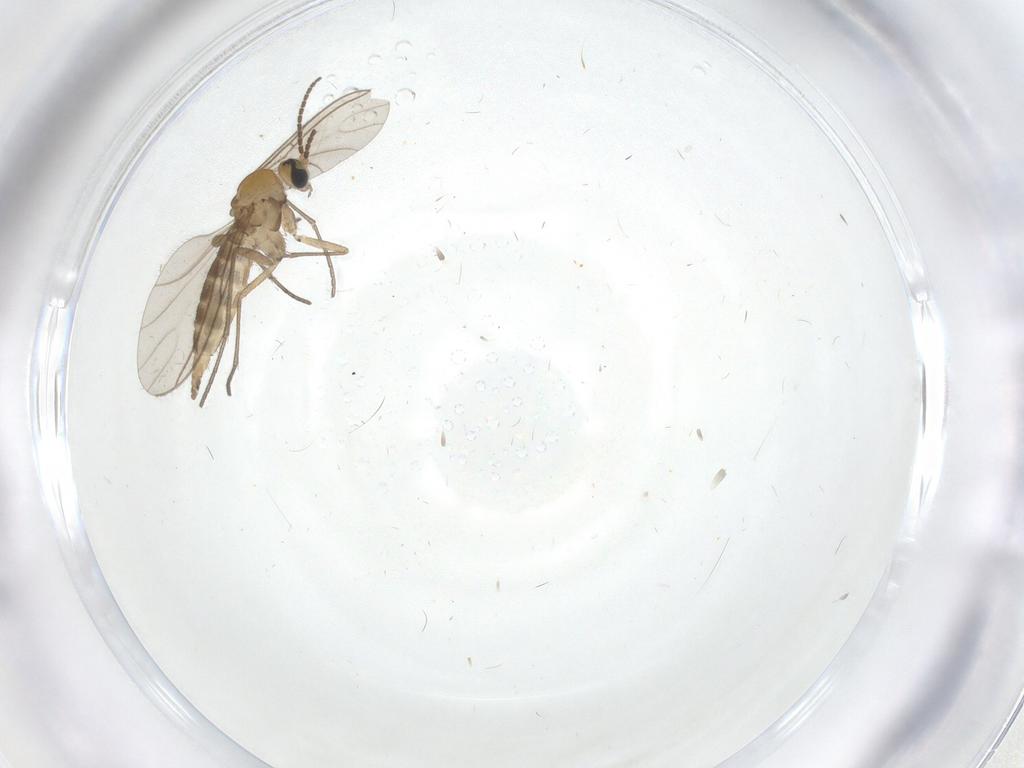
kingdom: Animalia
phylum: Arthropoda
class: Insecta
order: Diptera
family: Sciaridae
